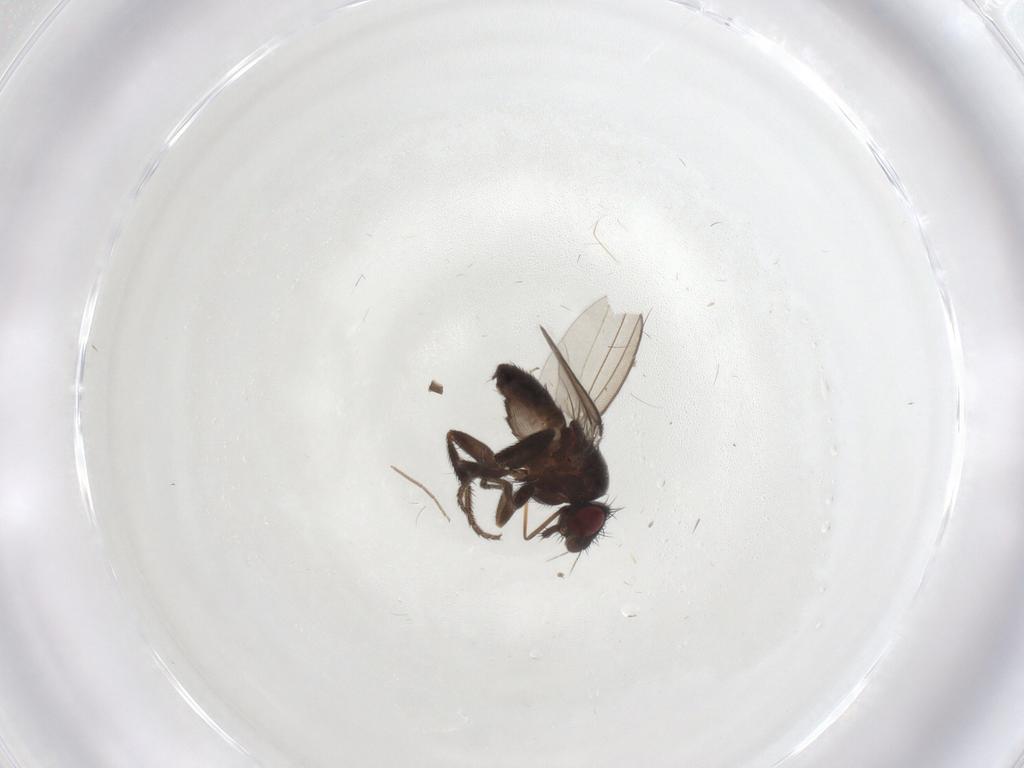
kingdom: Animalia
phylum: Arthropoda
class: Insecta
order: Diptera
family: Milichiidae
